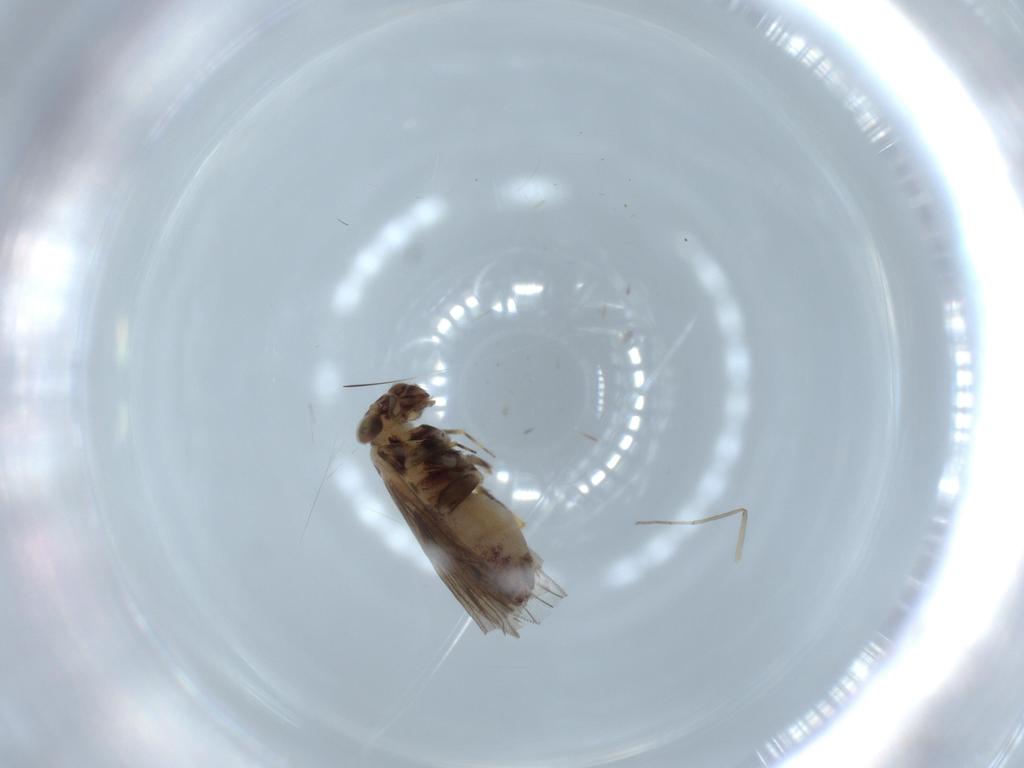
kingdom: Animalia
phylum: Arthropoda
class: Insecta
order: Psocodea
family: Lepidopsocidae
